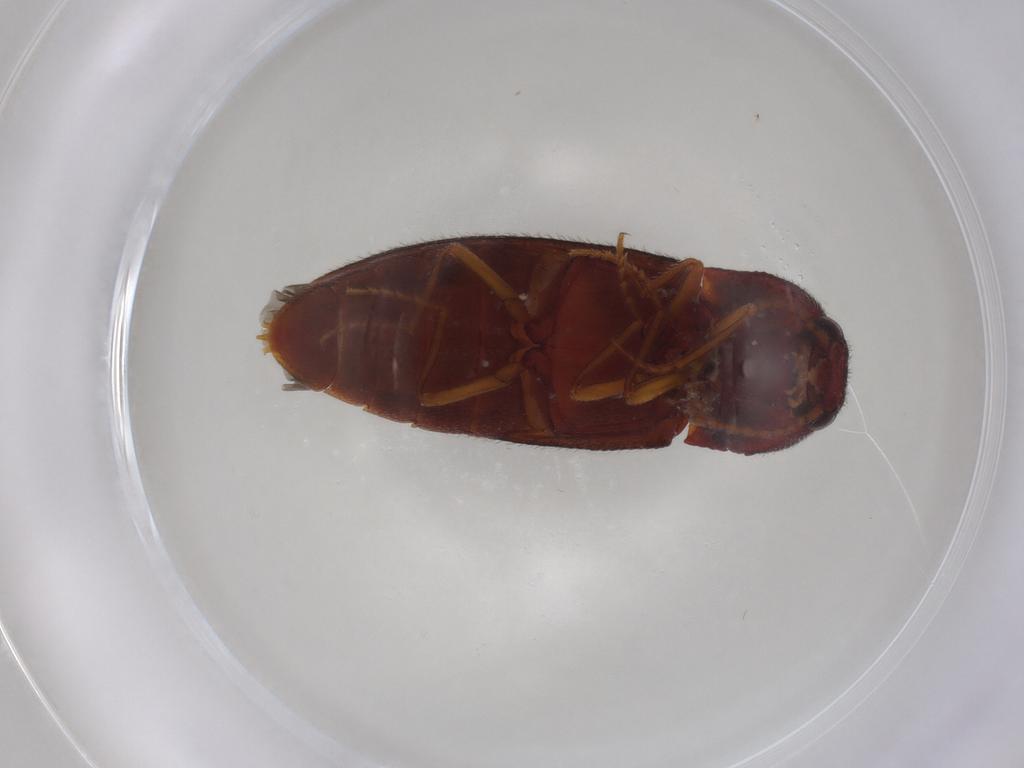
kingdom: Animalia
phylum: Arthropoda
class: Insecta
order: Coleoptera
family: Elateridae
